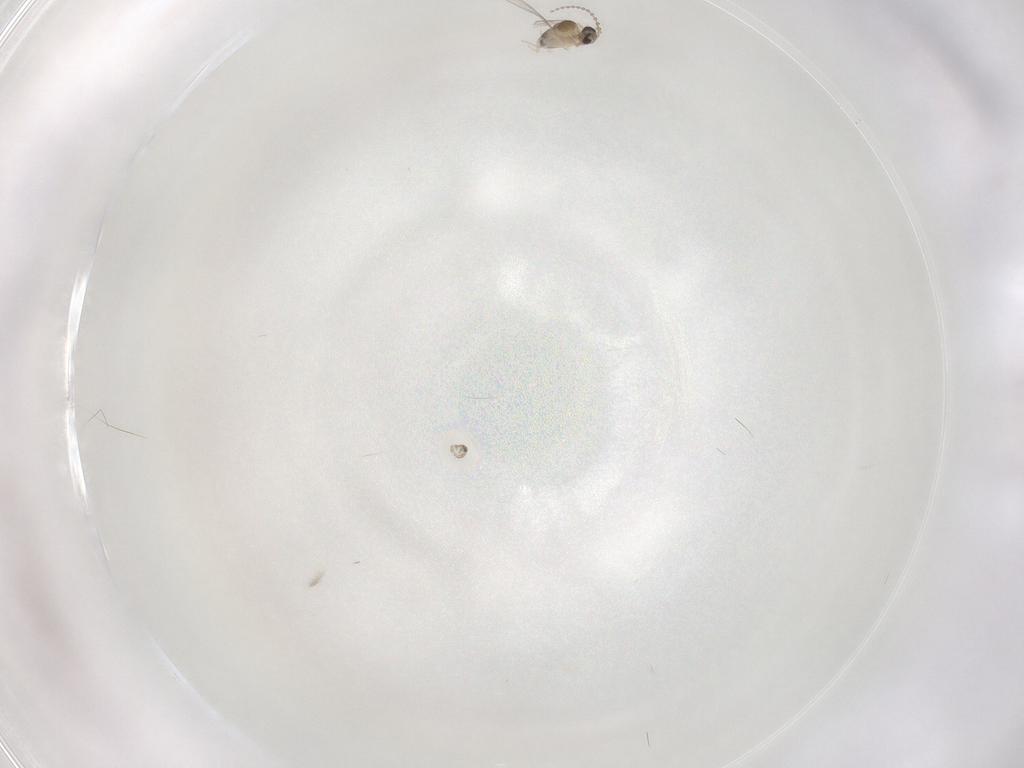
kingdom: Animalia
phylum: Arthropoda
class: Insecta
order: Diptera
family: Cecidomyiidae
